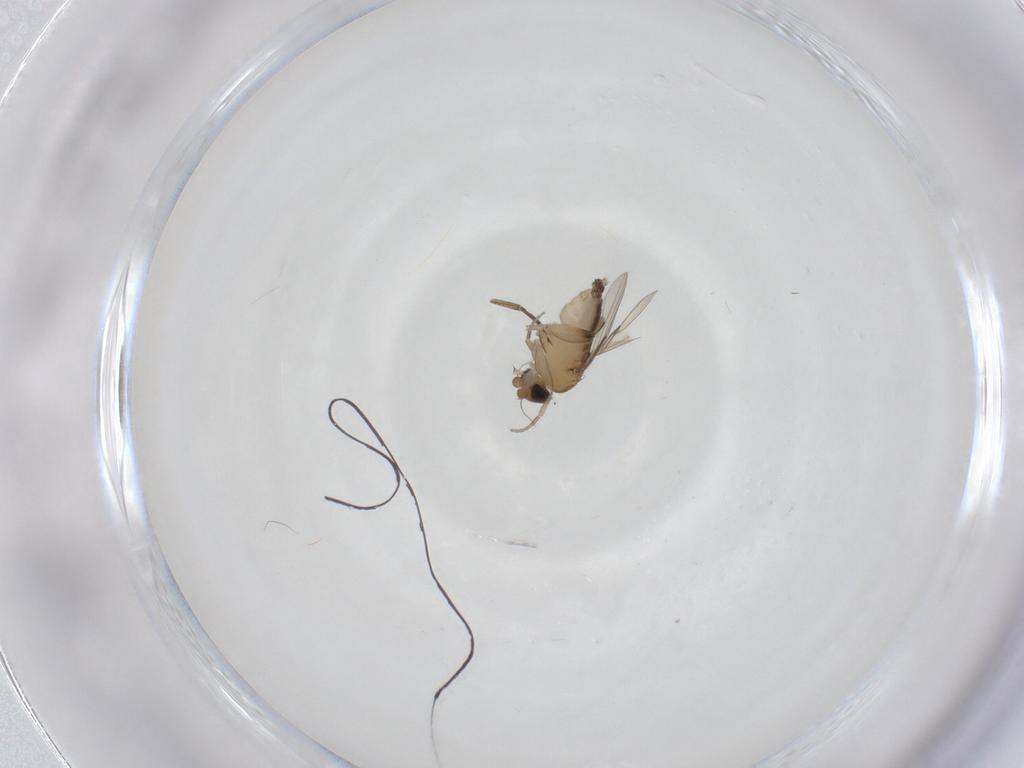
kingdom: Animalia
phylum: Arthropoda
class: Insecta
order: Diptera
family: Phoridae
